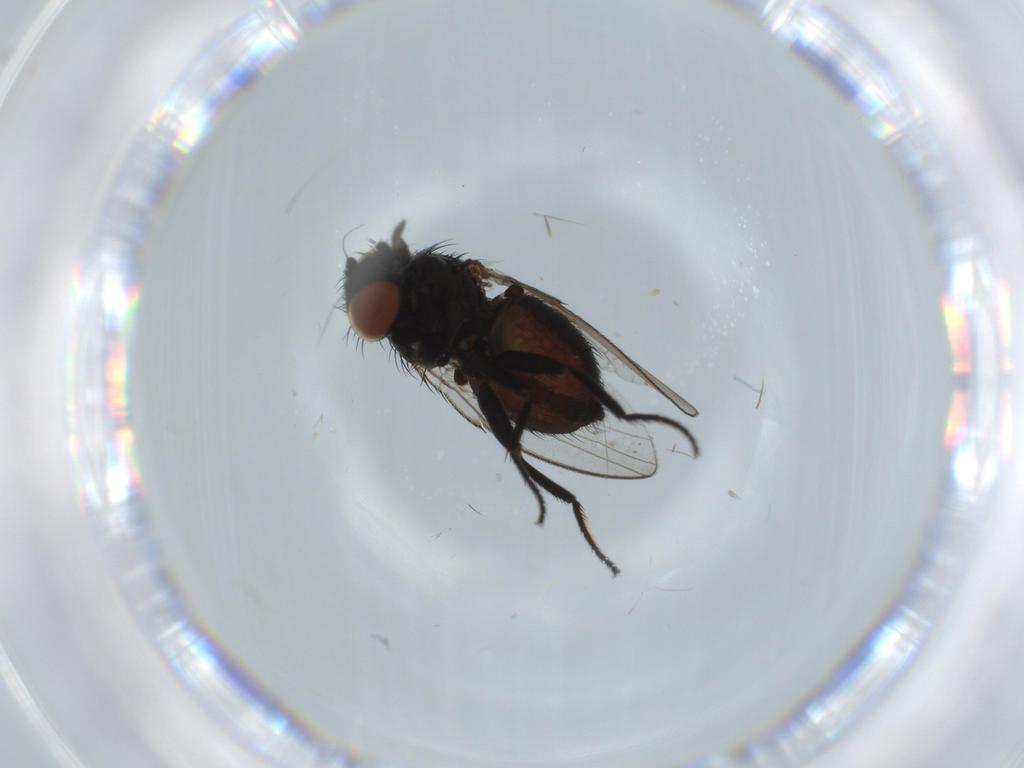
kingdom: Animalia
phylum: Arthropoda
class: Insecta
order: Diptera
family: Milichiidae
